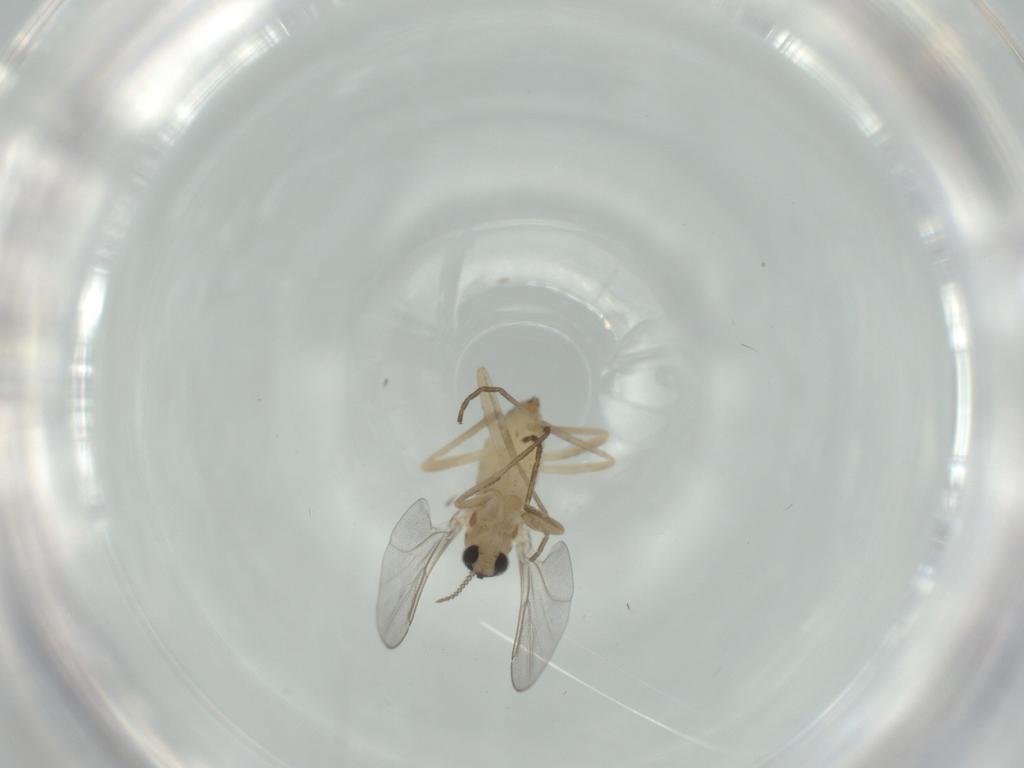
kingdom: Animalia
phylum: Arthropoda
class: Insecta
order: Diptera
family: Cecidomyiidae
